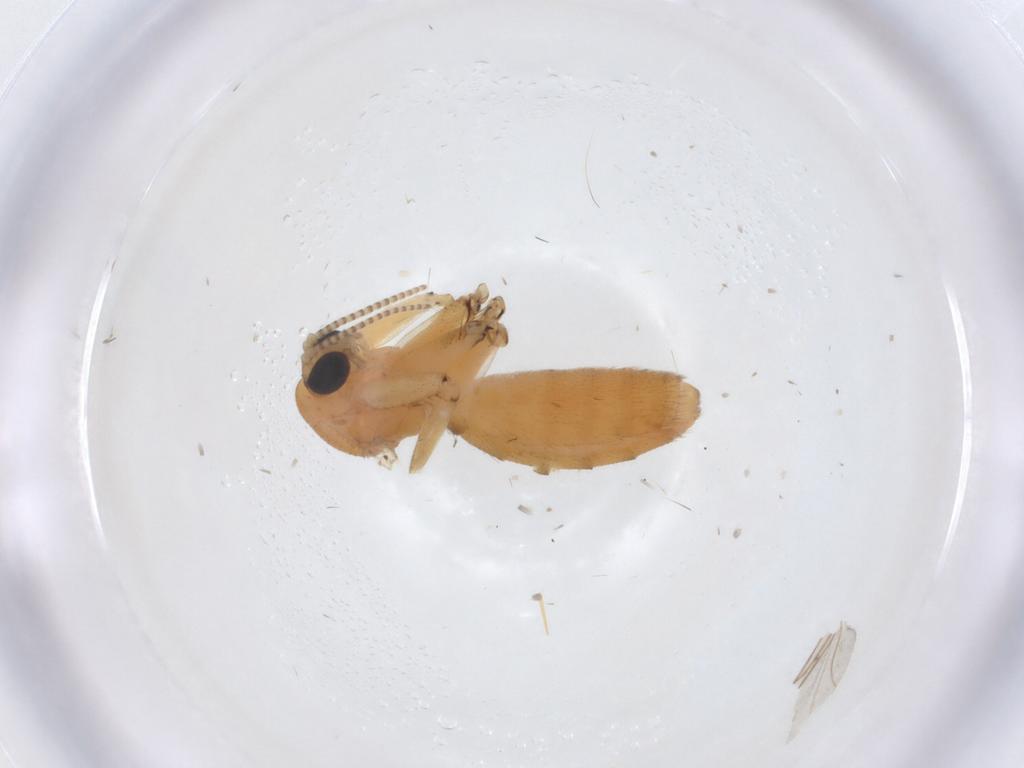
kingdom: Animalia
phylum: Arthropoda
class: Insecta
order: Diptera
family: Mycetophilidae
